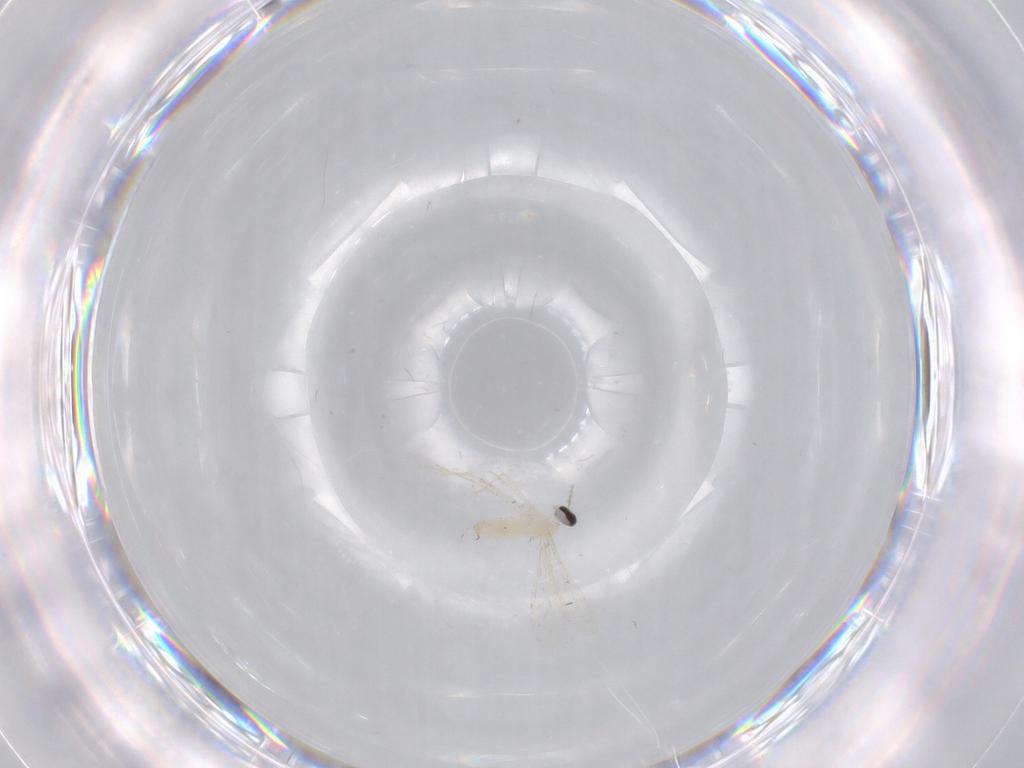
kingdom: Animalia
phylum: Arthropoda
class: Insecta
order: Diptera
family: Cecidomyiidae
